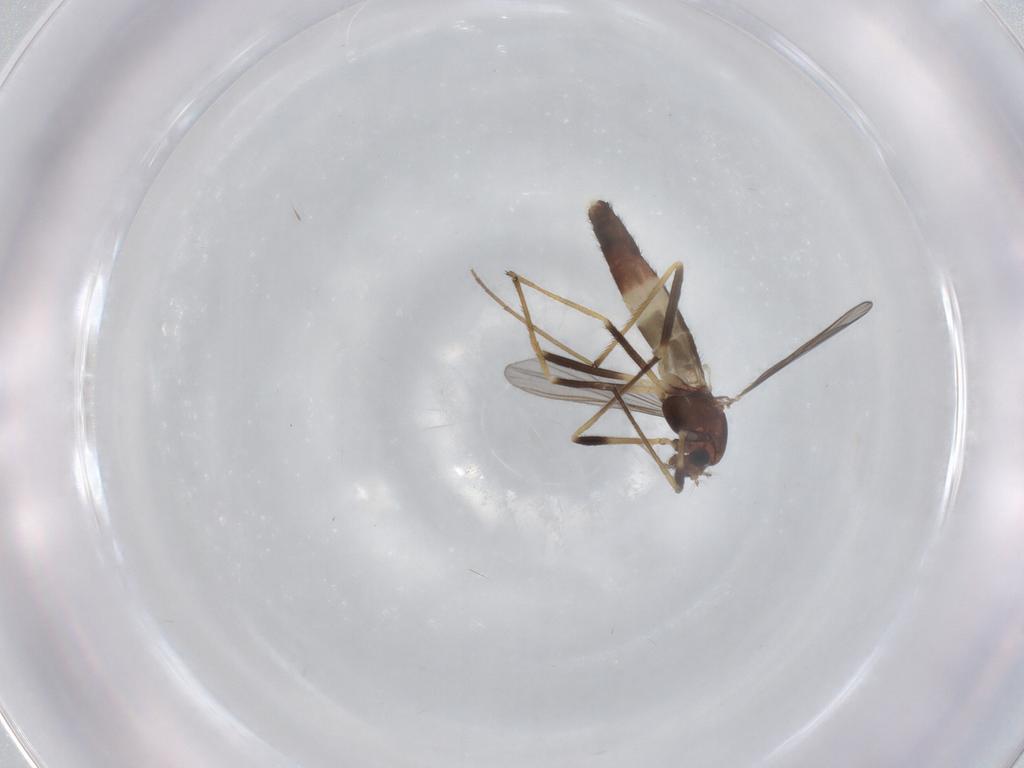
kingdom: Animalia
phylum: Arthropoda
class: Insecta
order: Diptera
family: Chironomidae
